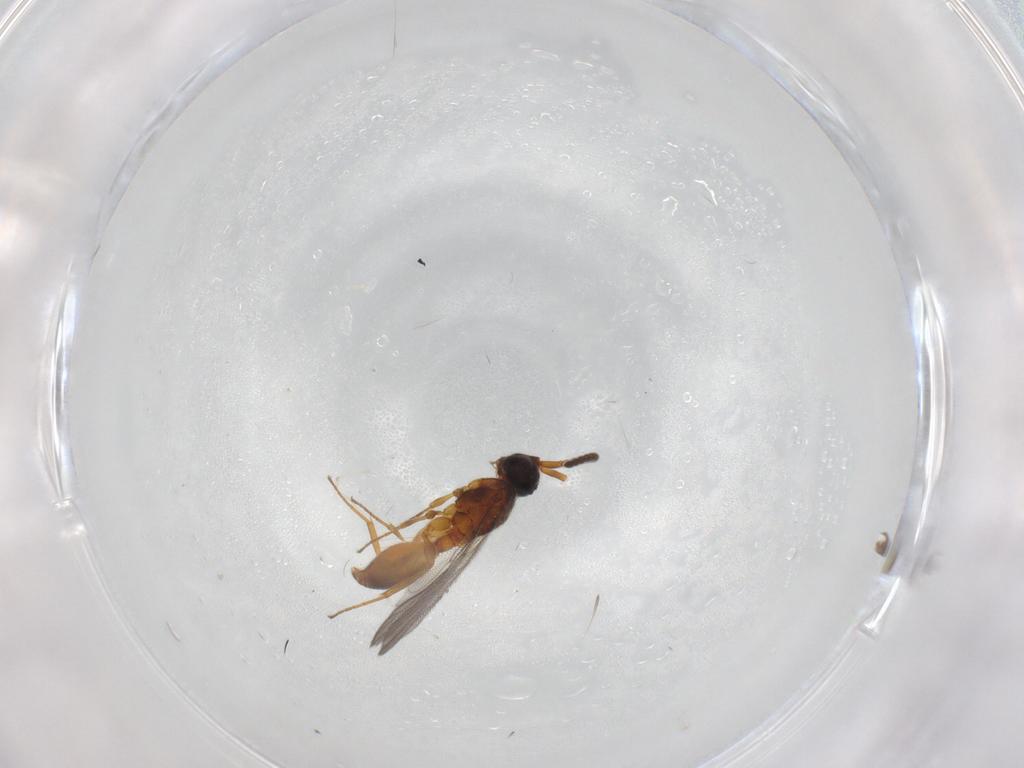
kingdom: Animalia
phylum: Arthropoda
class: Insecta
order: Hymenoptera
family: Diapriidae
